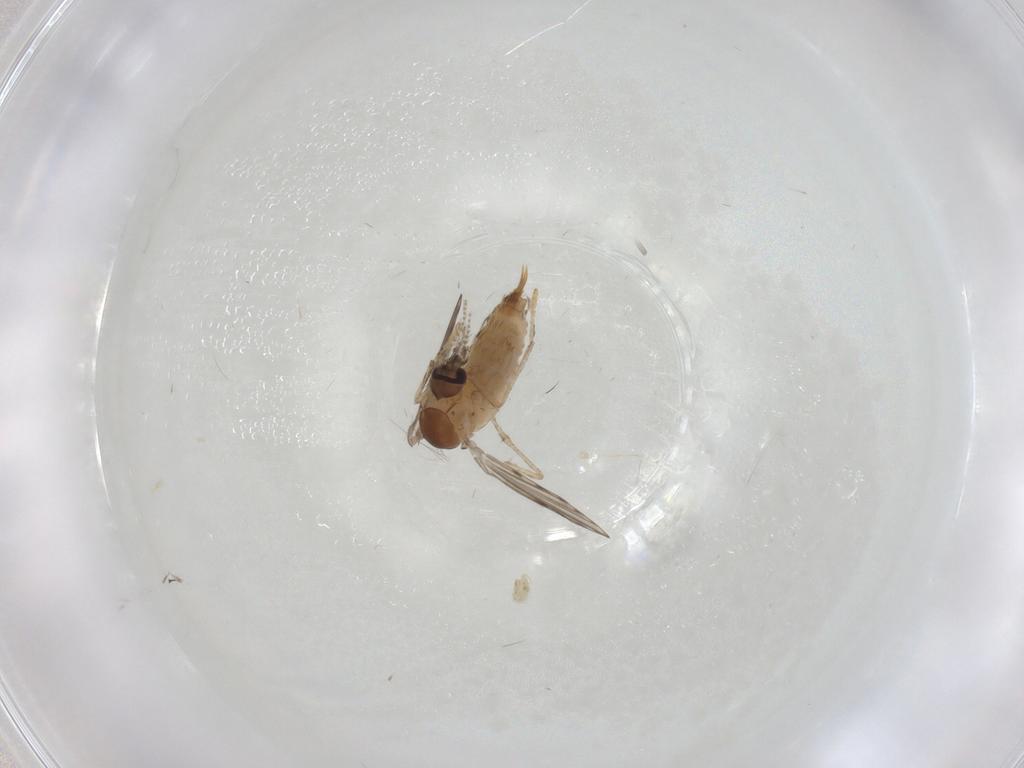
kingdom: Animalia
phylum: Arthropoda
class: Insecta
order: Diptera
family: Psychodidae
